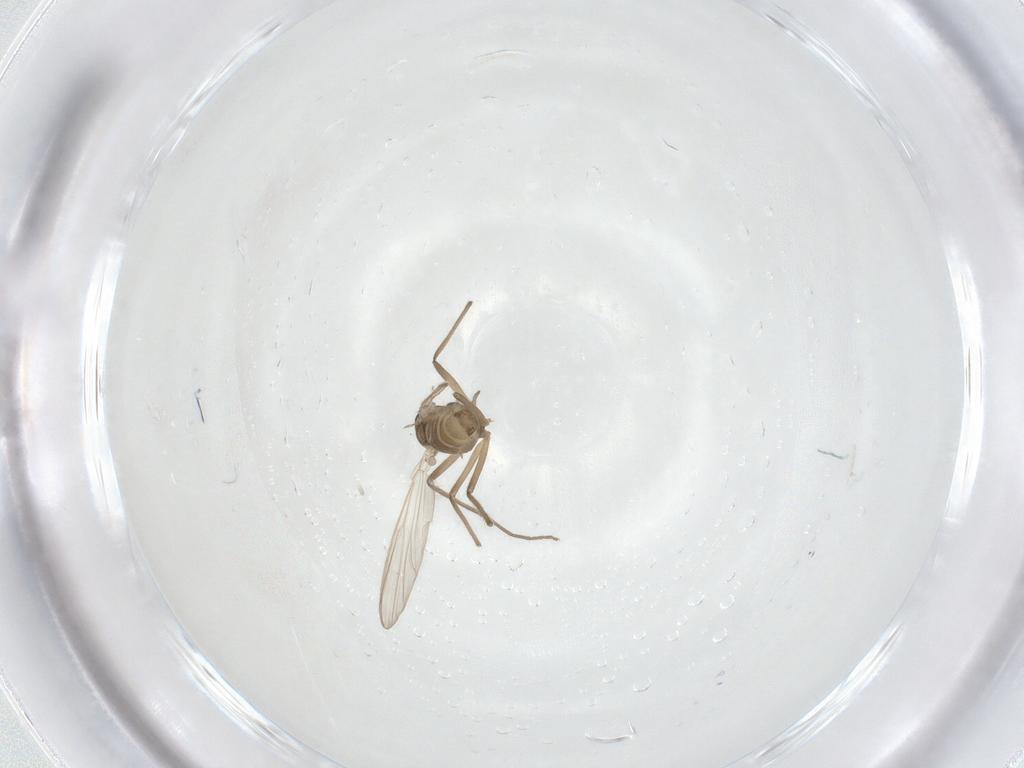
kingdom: Animalia
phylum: Arthropoda
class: Insecta
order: Diptera
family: Chironomidae
